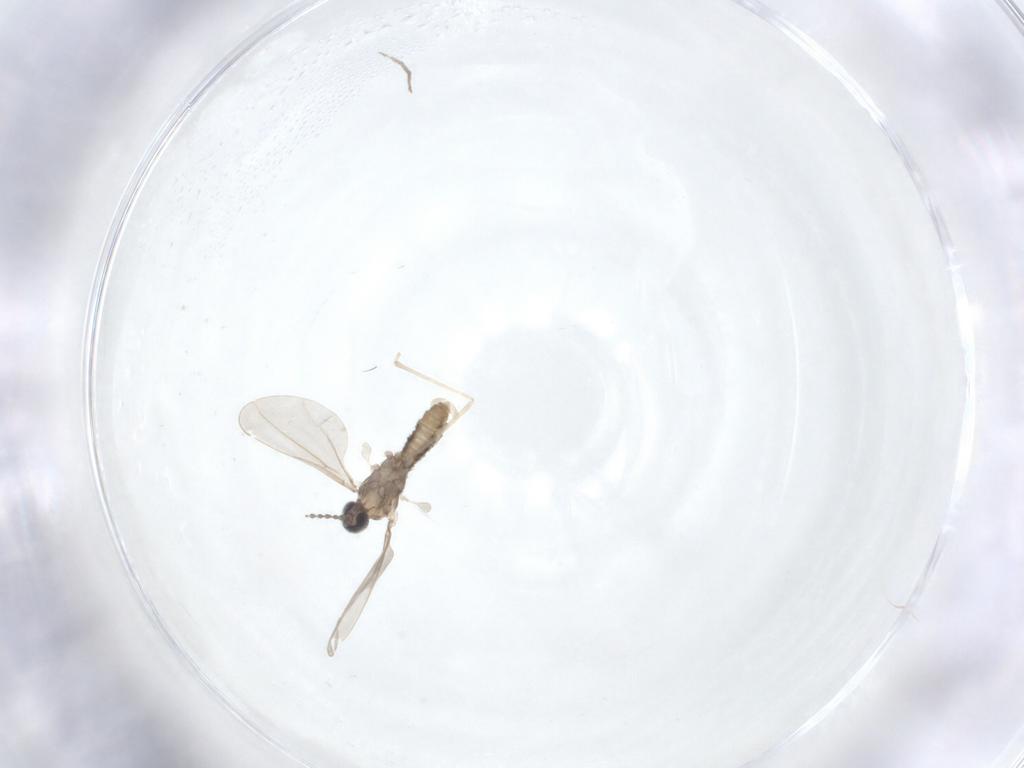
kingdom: Animalia
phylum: Arthropoda
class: Insecta
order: Diptera
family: Cecidomyiidae
